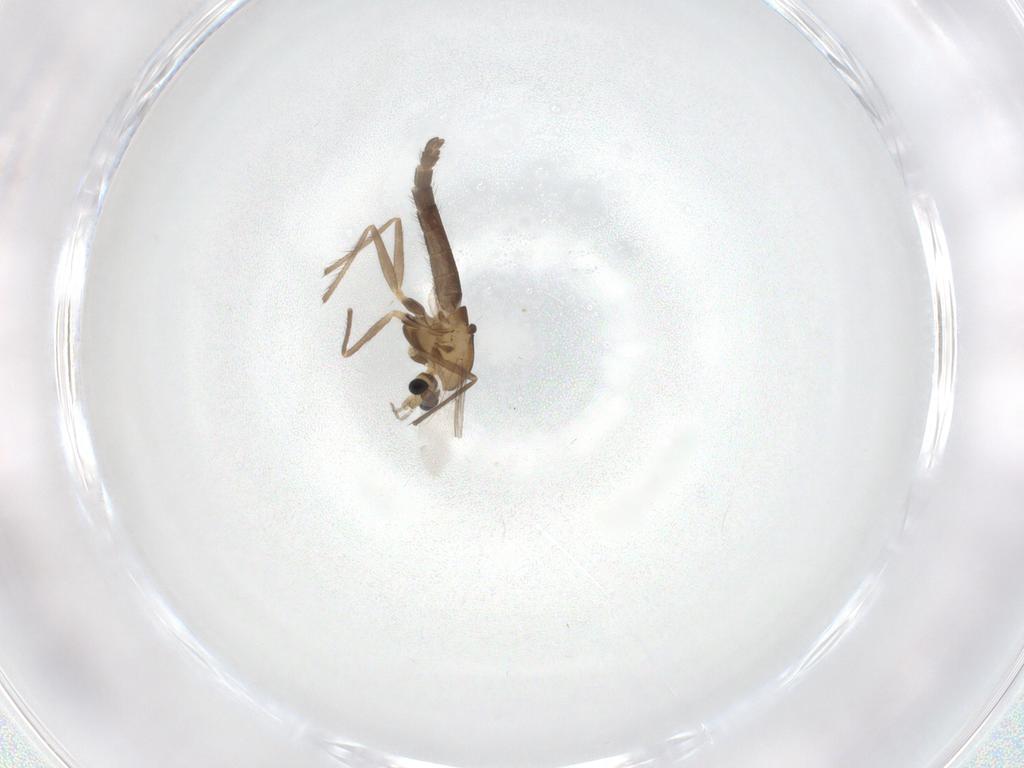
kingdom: Animalia
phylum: Arthropoda
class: Insecta
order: Diptera
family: Chironomidae
